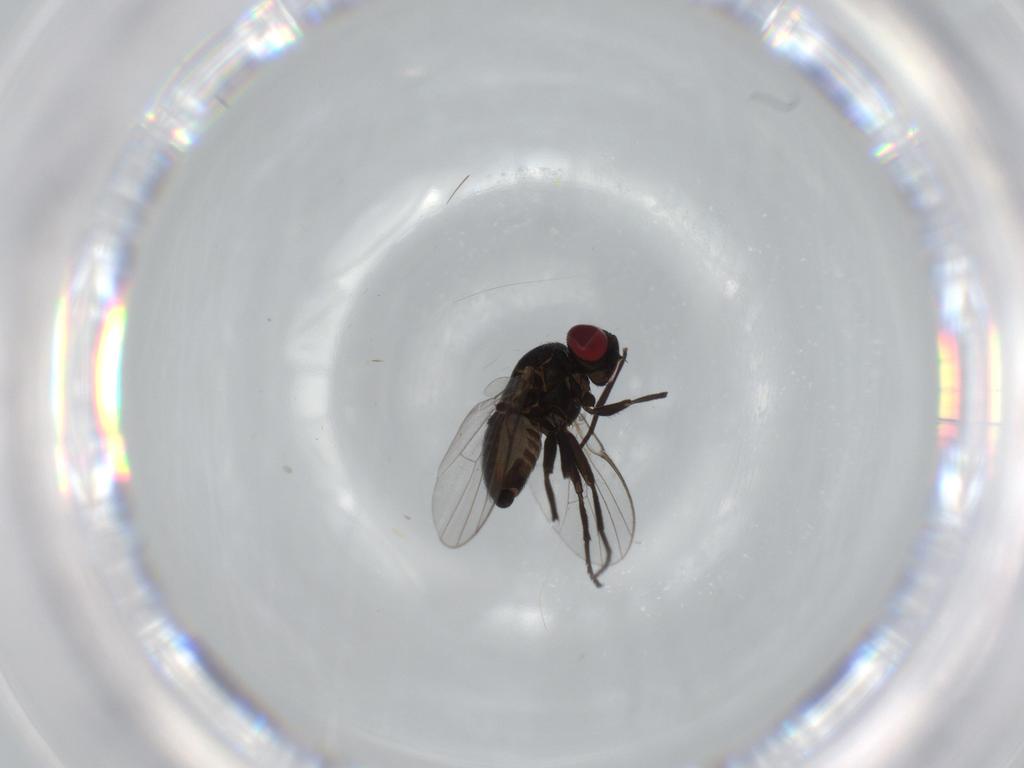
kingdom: Animalia
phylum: Arthropoda
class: Insecta
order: Diptera
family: Agromyzidae
